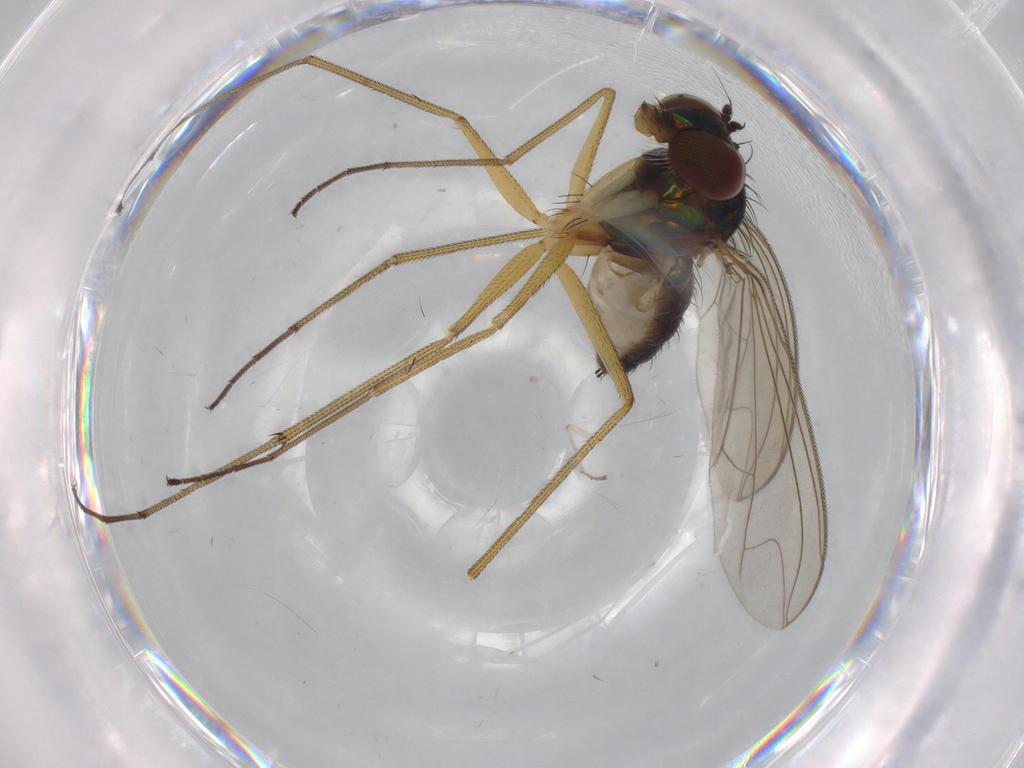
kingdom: Animalia
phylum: Arthropoda
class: Insecta
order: Diptera
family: Dolichopodidae
